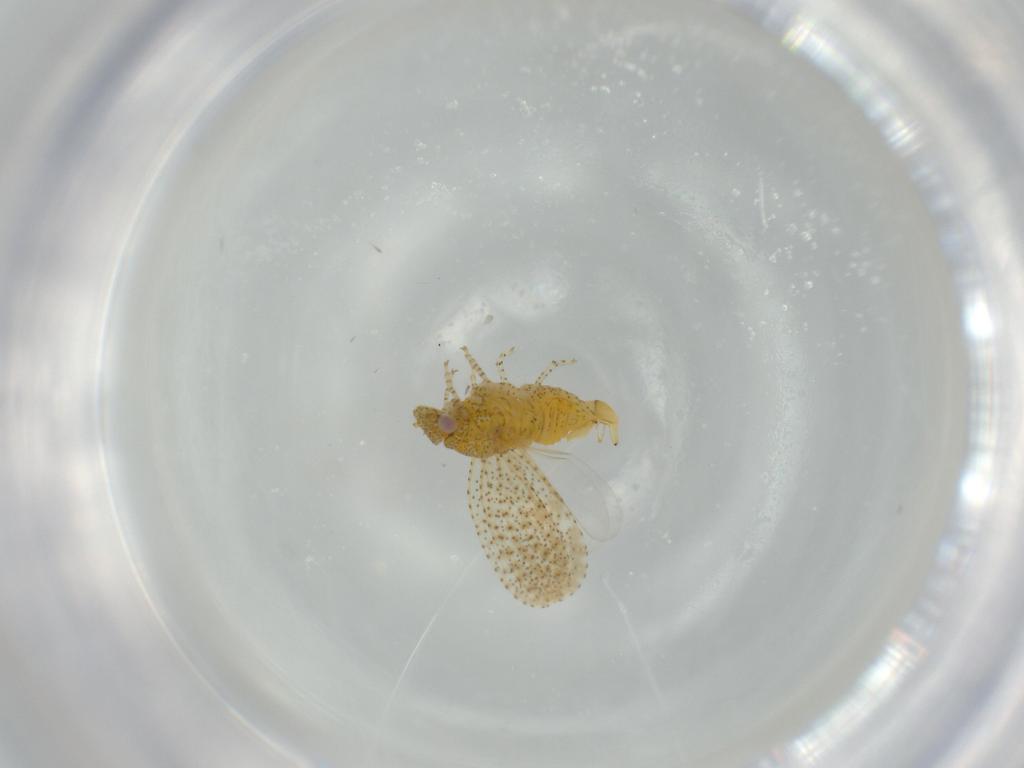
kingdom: Animalia
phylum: Arthropoda
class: Insecta
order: Hemiptera
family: Psyllidae
